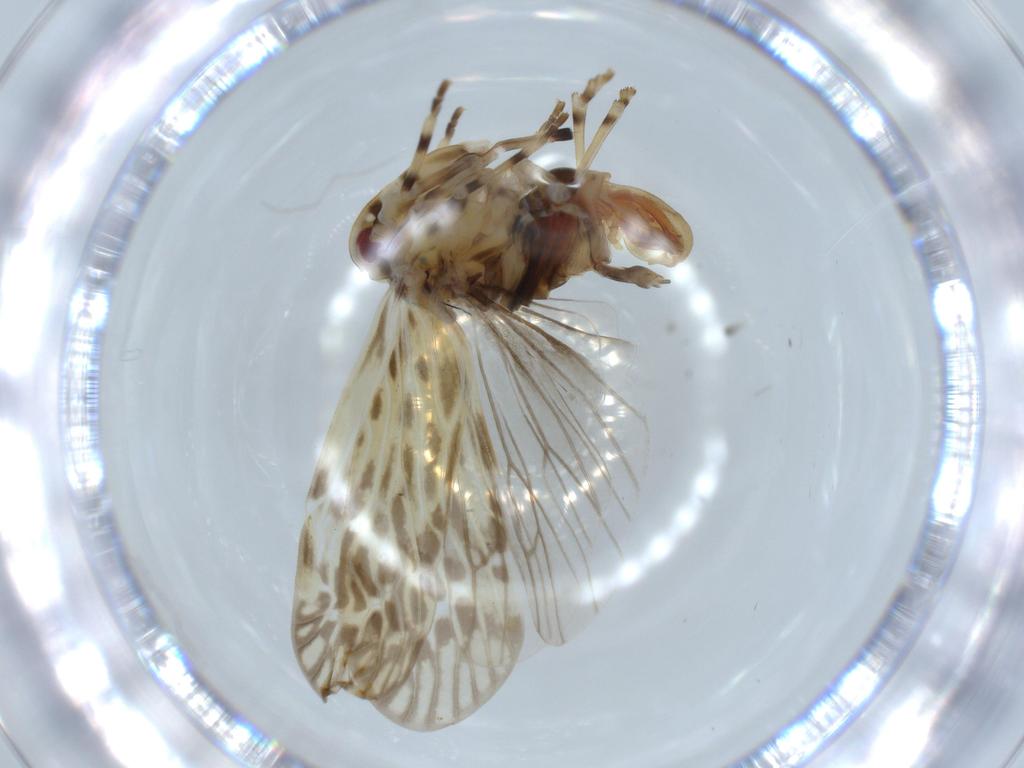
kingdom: Animalia
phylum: Arthropoda
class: Insecta
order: Hemiptera
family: Derbidae
